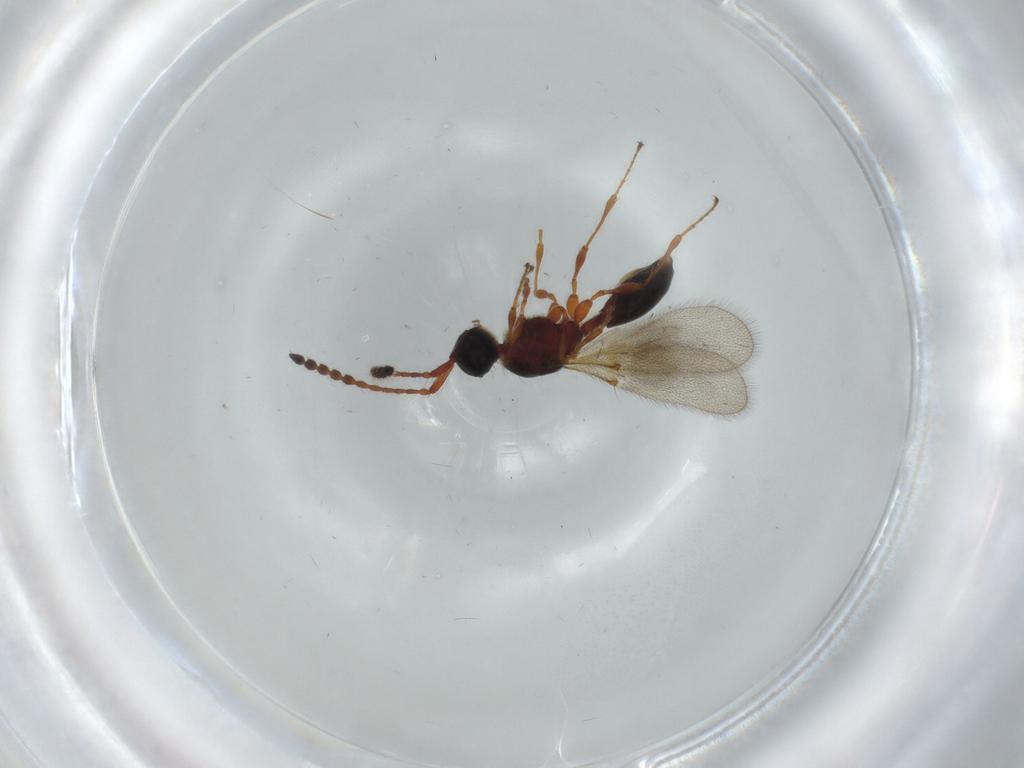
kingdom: Animalia
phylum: Arthropoda
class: Insecta
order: Hymenoptera
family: Diapriidae
